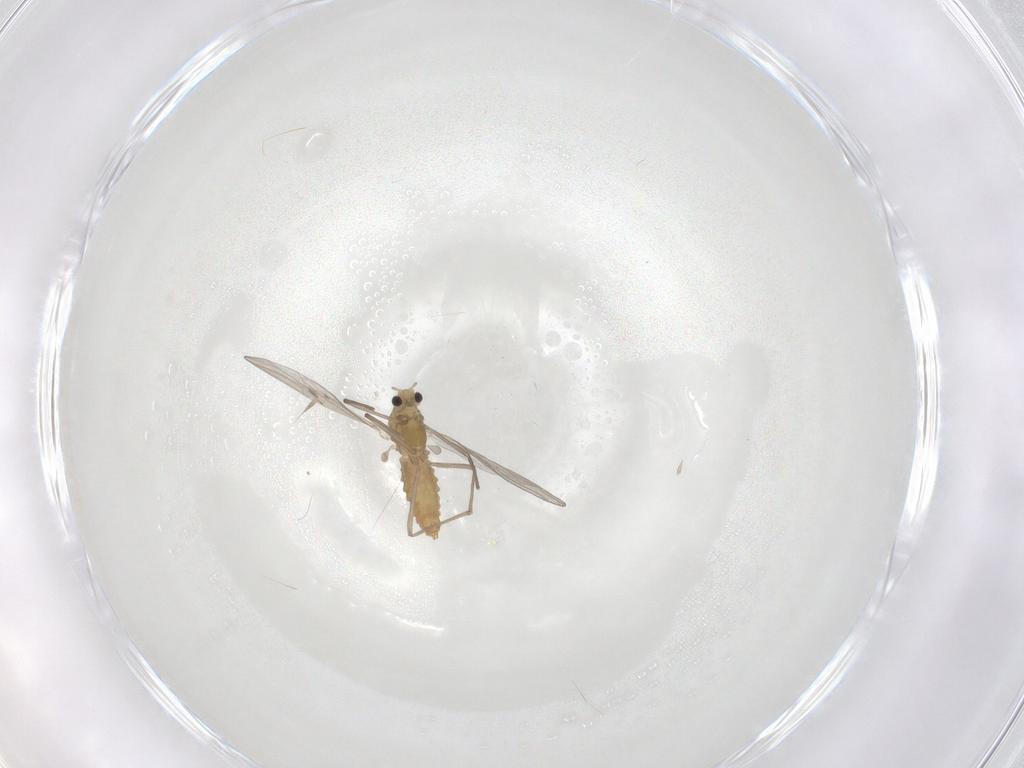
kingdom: Animalia
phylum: Arthropoda
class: Insecta
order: Diptera
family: Chironomidae
